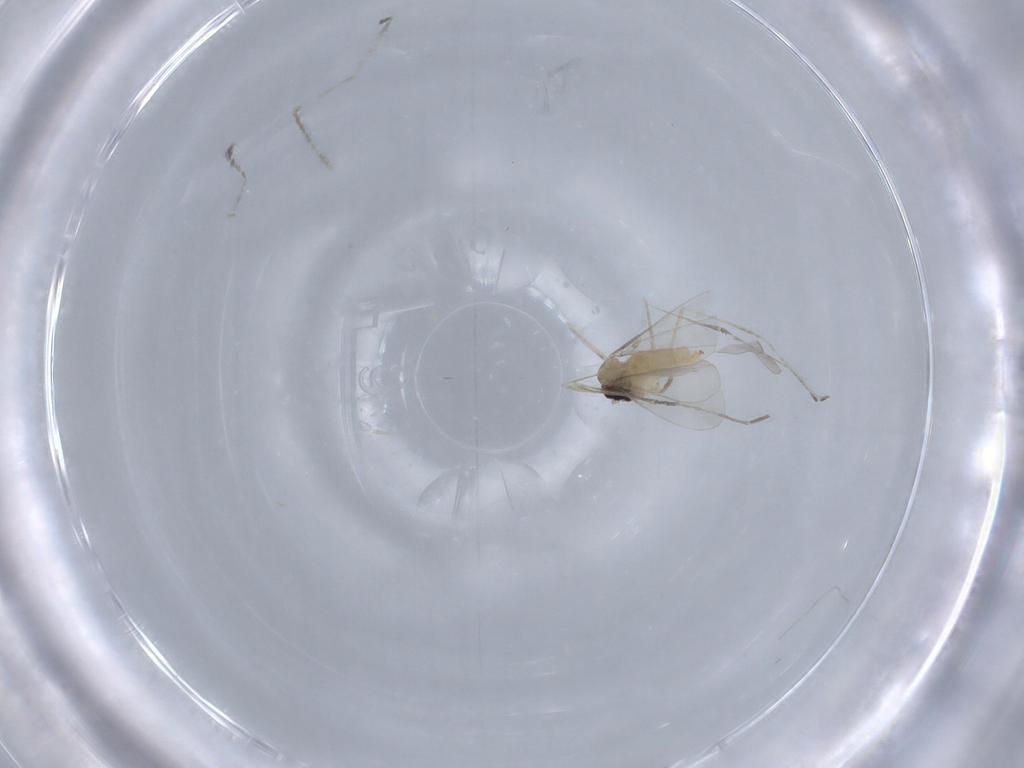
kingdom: Animalia
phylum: Arthropoda
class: Insecta
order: Diptera
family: Cecidomyiidae
